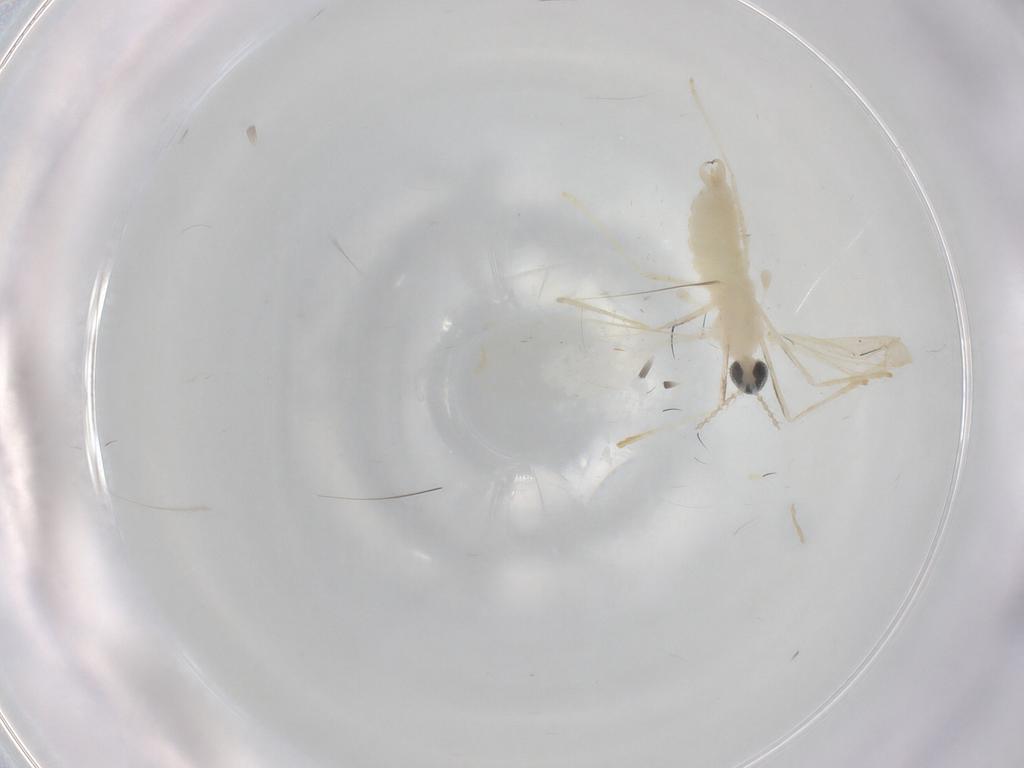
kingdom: Animalia
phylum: Arthropoda
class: Insecta
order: Diptera
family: Cecidomyiidae
